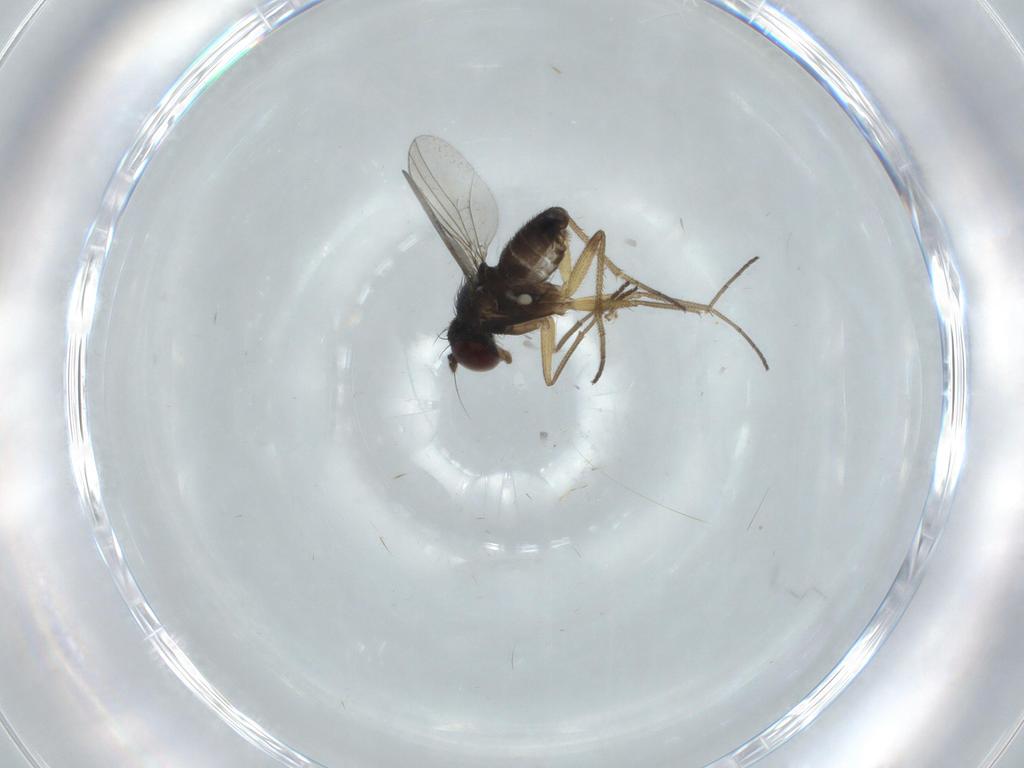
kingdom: Animalia
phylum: Arthropoda
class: Insecta
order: Diptera
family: Dolichopodidae
